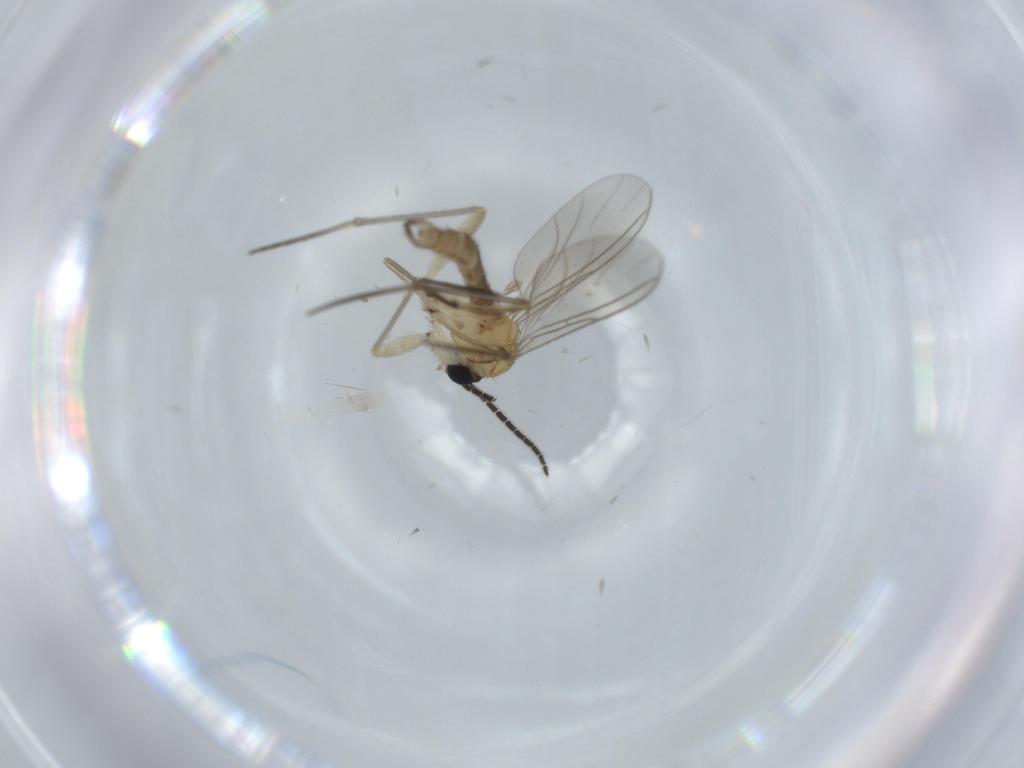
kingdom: Animalia
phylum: Arthropoda
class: Insecta
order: Diptera
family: Sciaridae
